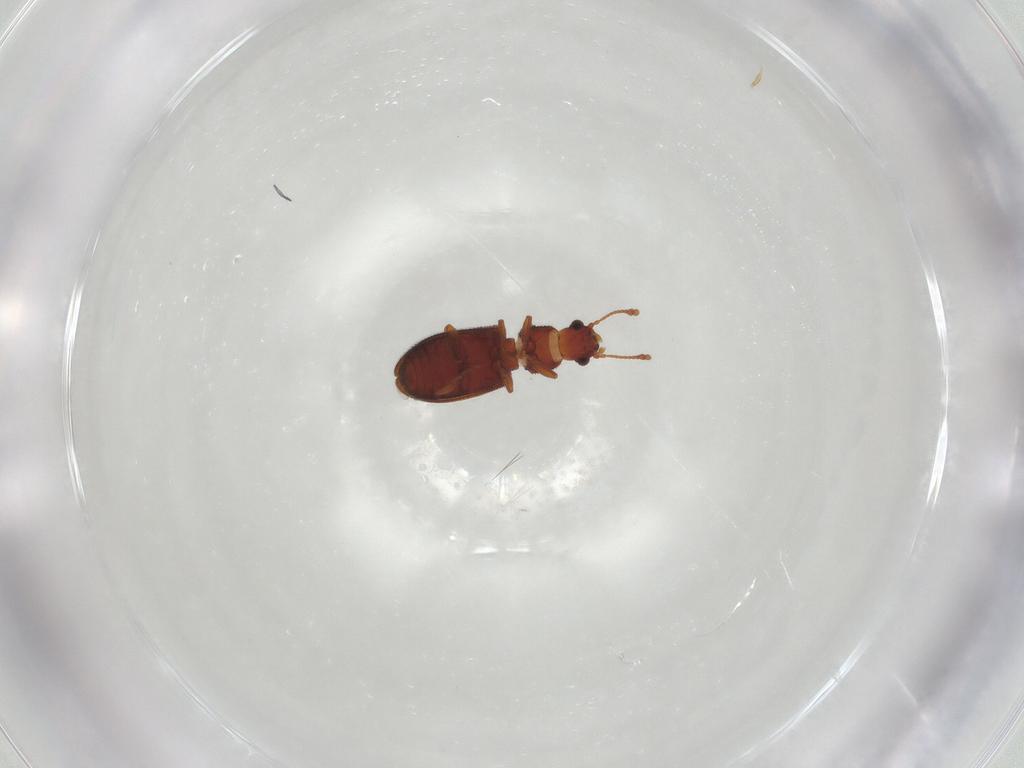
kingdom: Animalia
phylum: Arthropoda
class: Insecta
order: Coleoptera
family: Mycetophagidae
